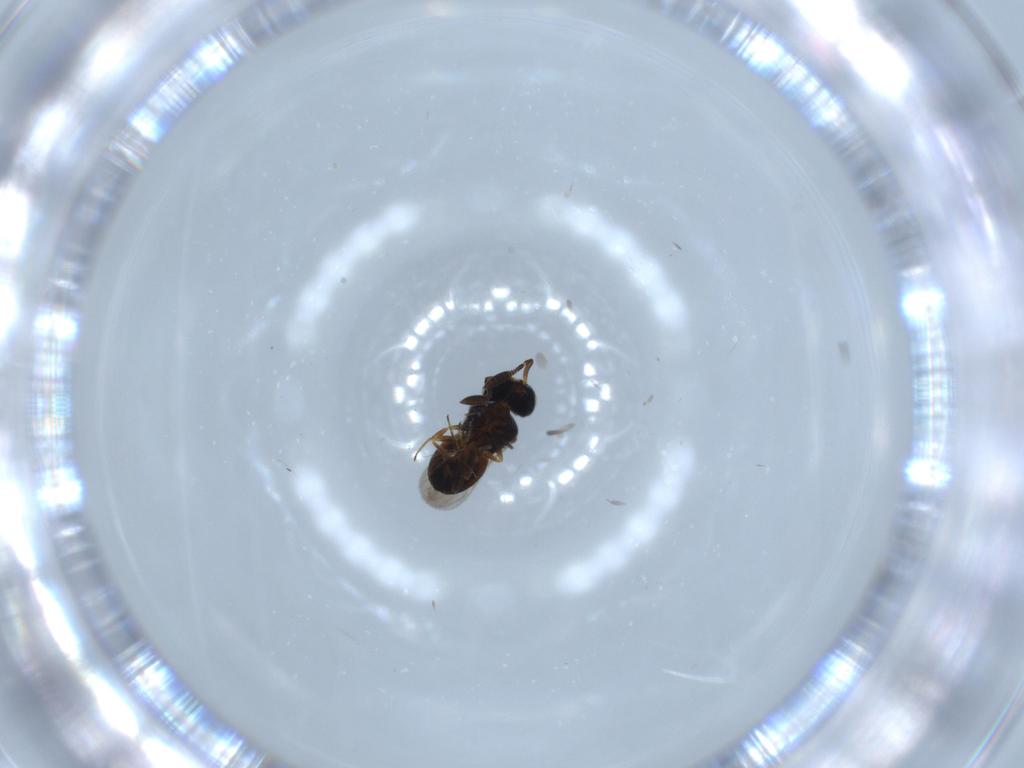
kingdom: Animalia
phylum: Arthropoda
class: Insecta
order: Hymenoptera
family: Scelionidae
